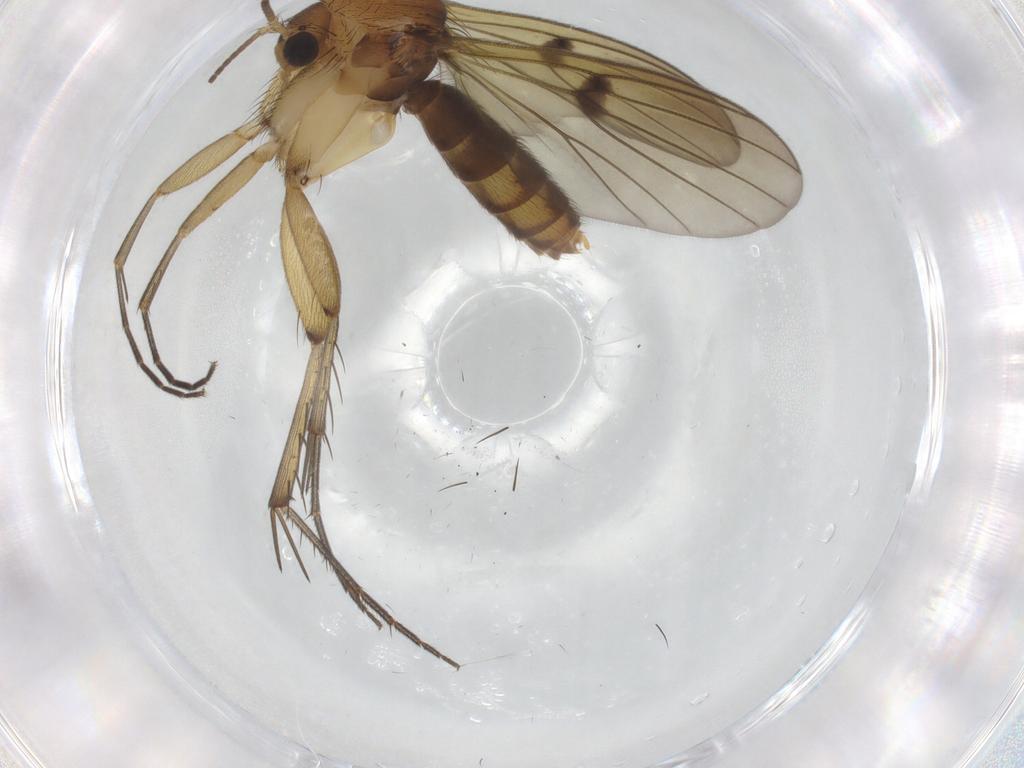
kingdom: Animalia
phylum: Arthropoda
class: Insecta
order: Diptera
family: Mycetophilidae
